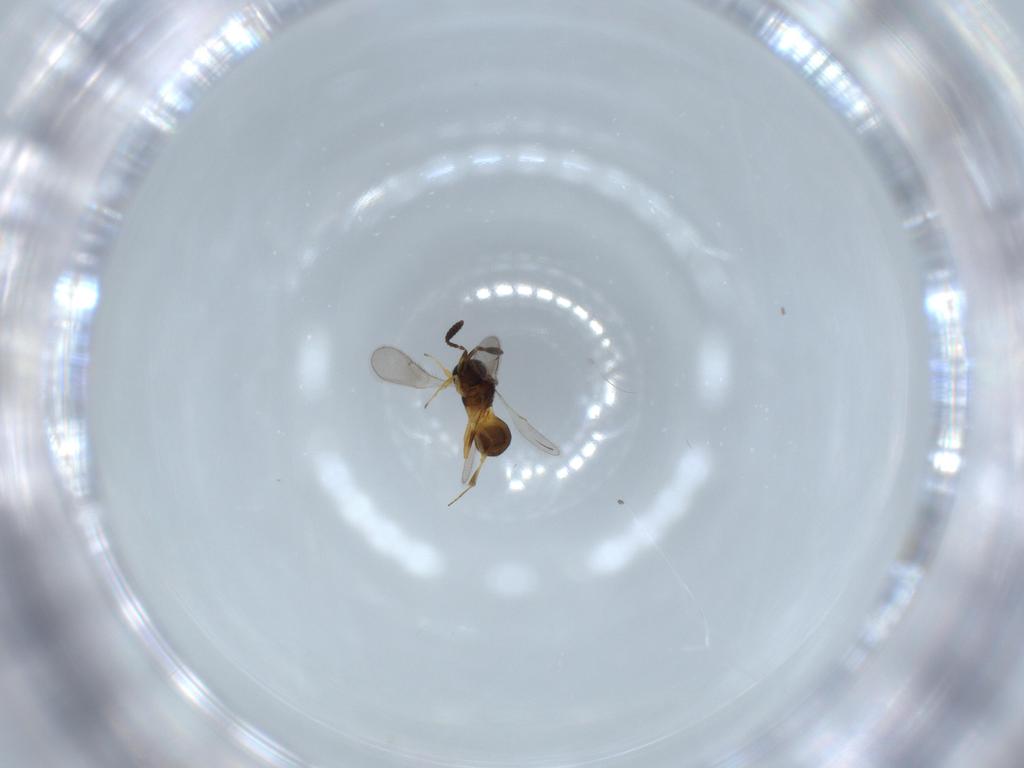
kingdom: Animalia
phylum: Arthropoda
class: Insecta
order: Hymenoptera
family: Scelionidae
